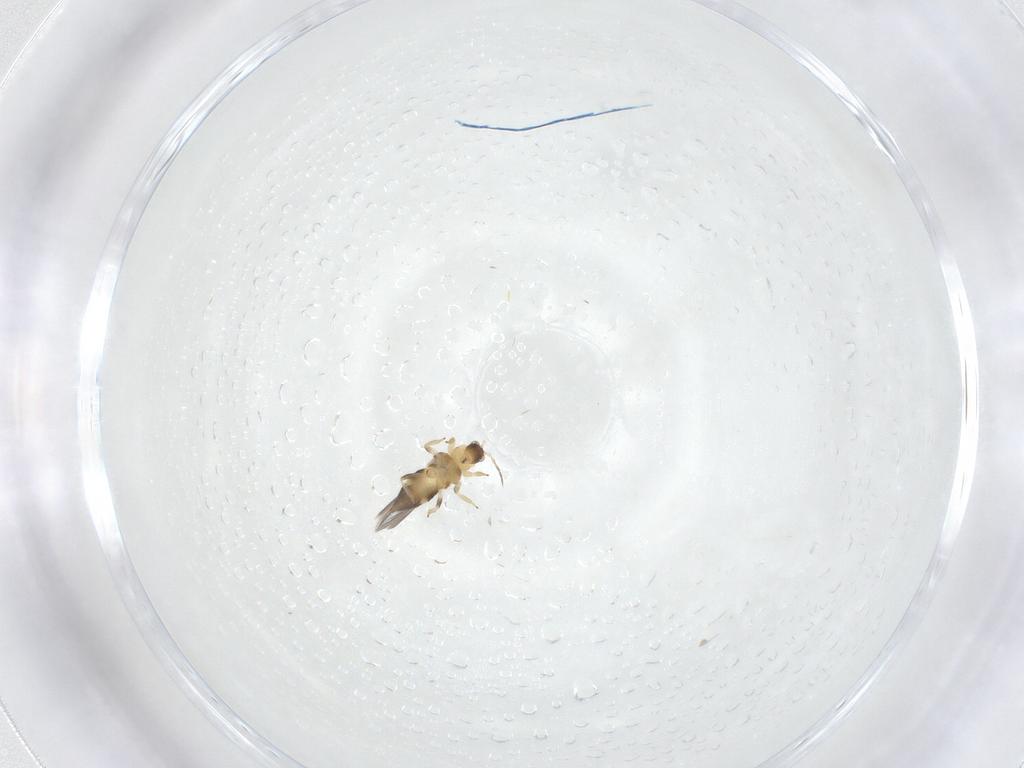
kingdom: Animalia
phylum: Arthropoda
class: Insecta
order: Thysanoptera
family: Thripidae
